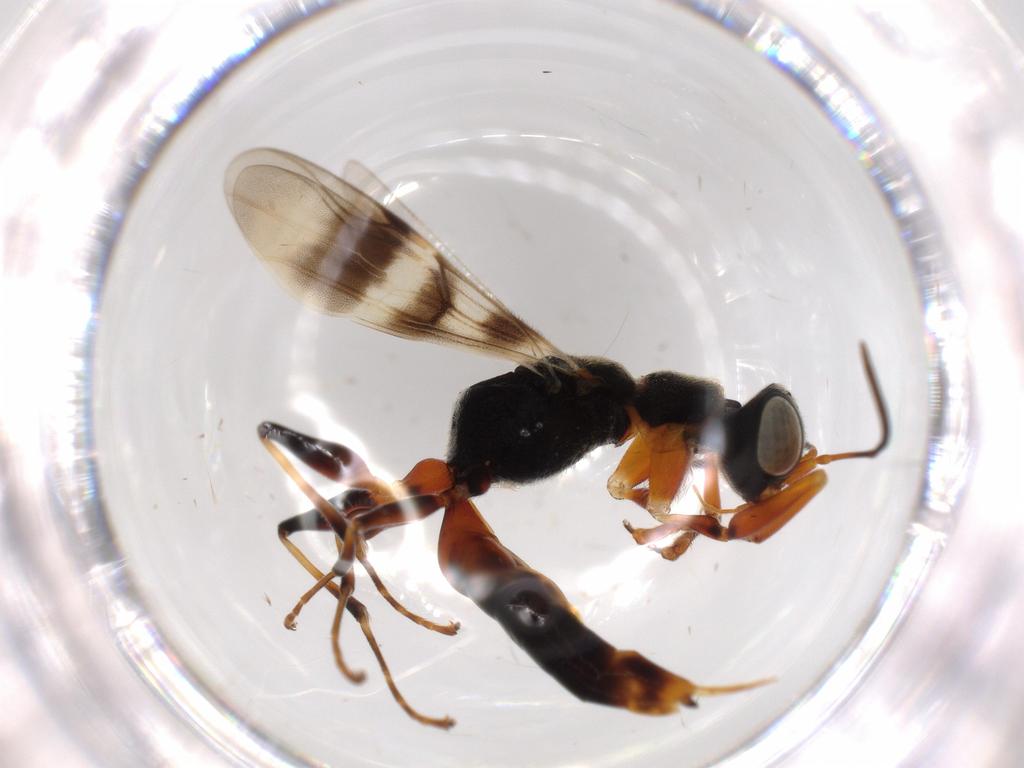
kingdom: Animalia
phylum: Arthropoda
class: Insecta
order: Hymenoptera
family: Dryinidae
